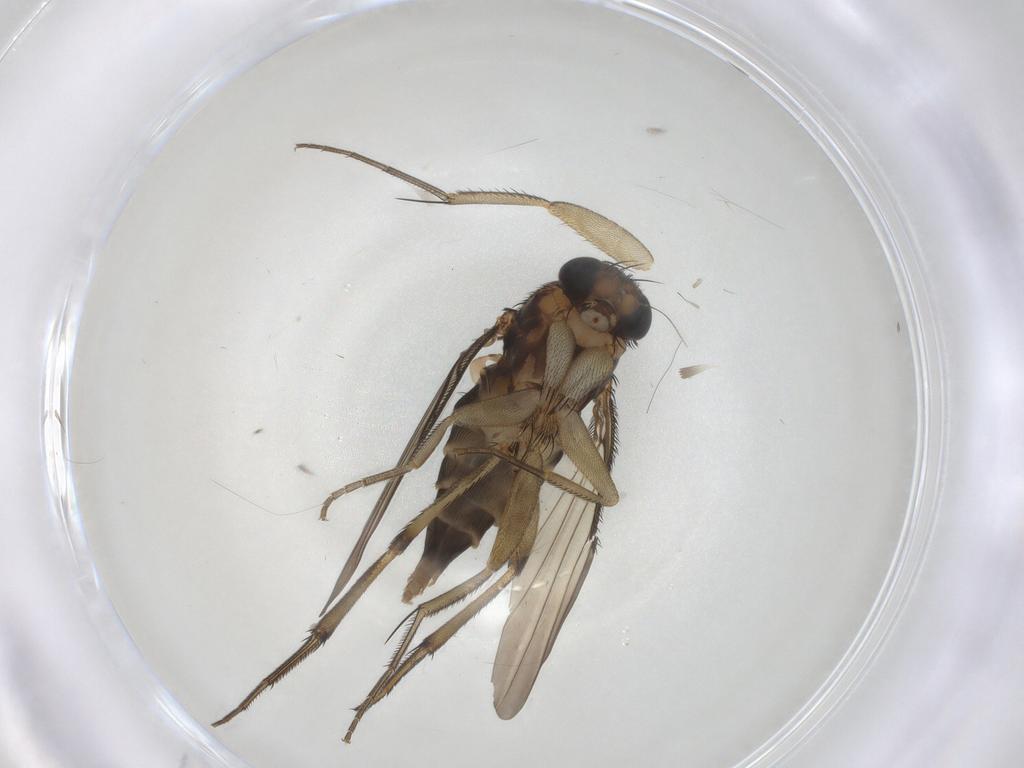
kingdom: Animalia
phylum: Arthropoda
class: Insecta
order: Diptera
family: Phoridae
